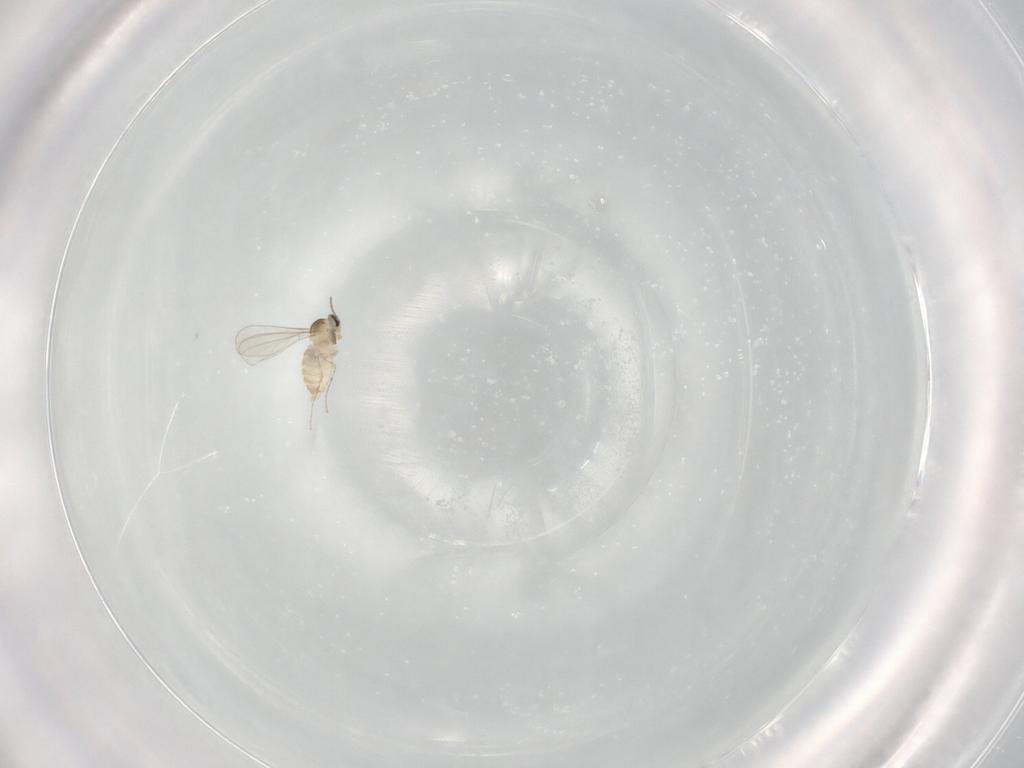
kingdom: Animalia
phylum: Arthropoda
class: Insecta
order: Diptera
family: Cecidomyiidae
